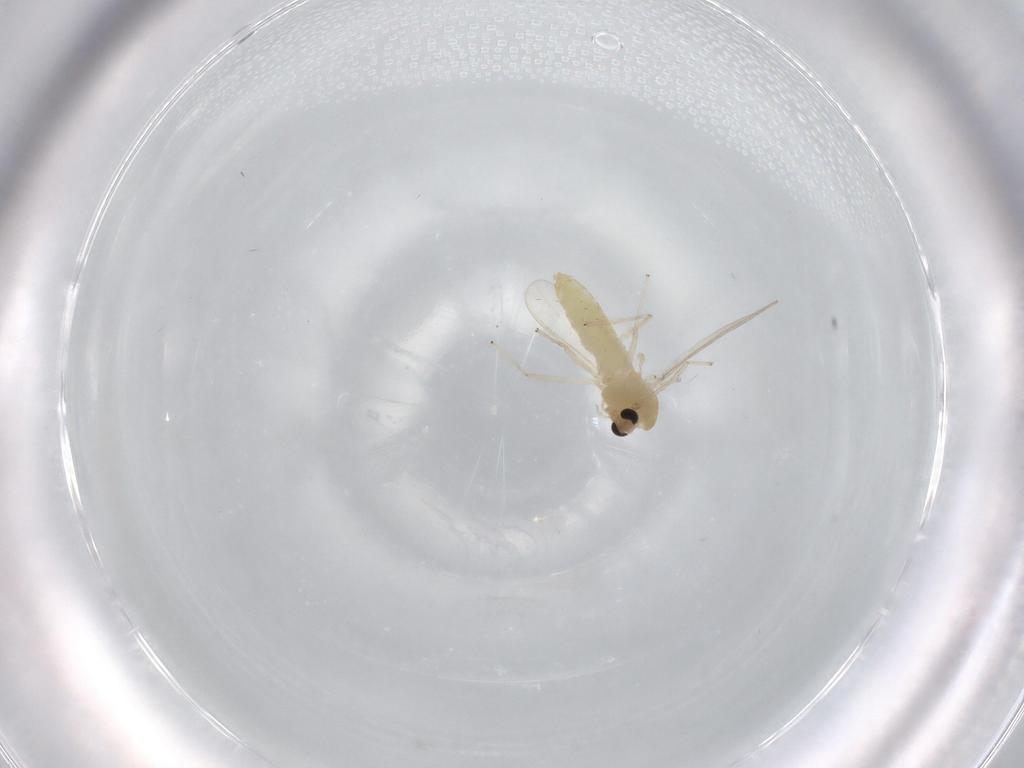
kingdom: Animalia
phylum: Arthropoda
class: Insecta
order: Diptera
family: Chironomidae
